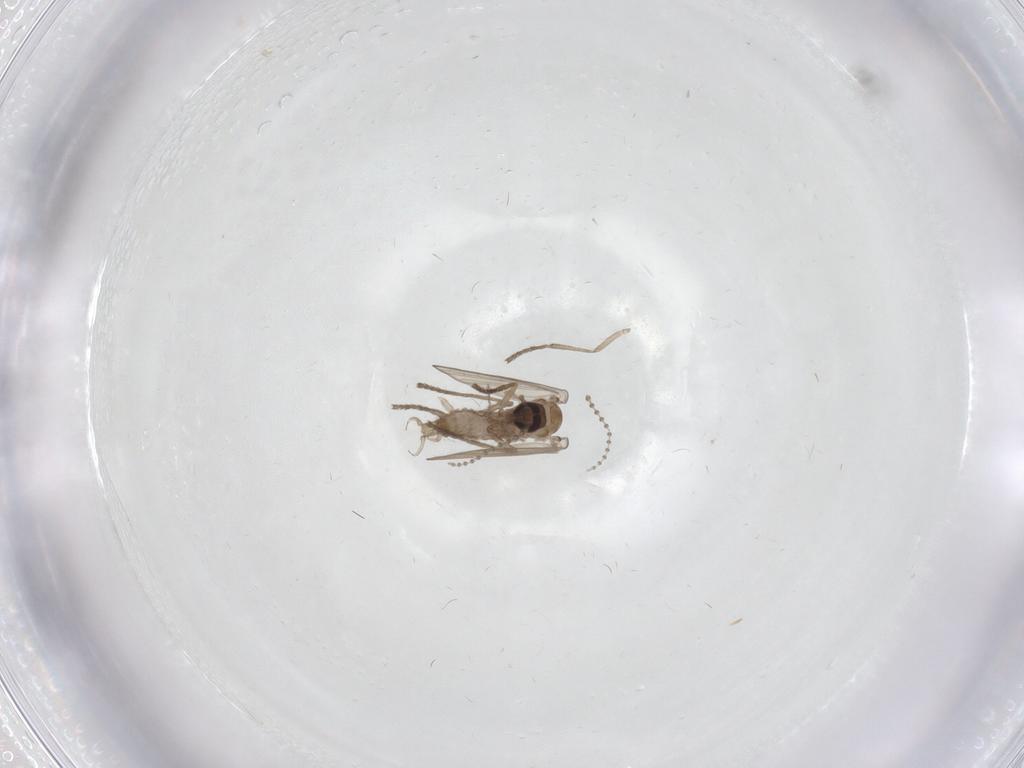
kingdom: Animalia
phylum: Arthropoda
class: Insecta
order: Diptera
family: Psychodidae
